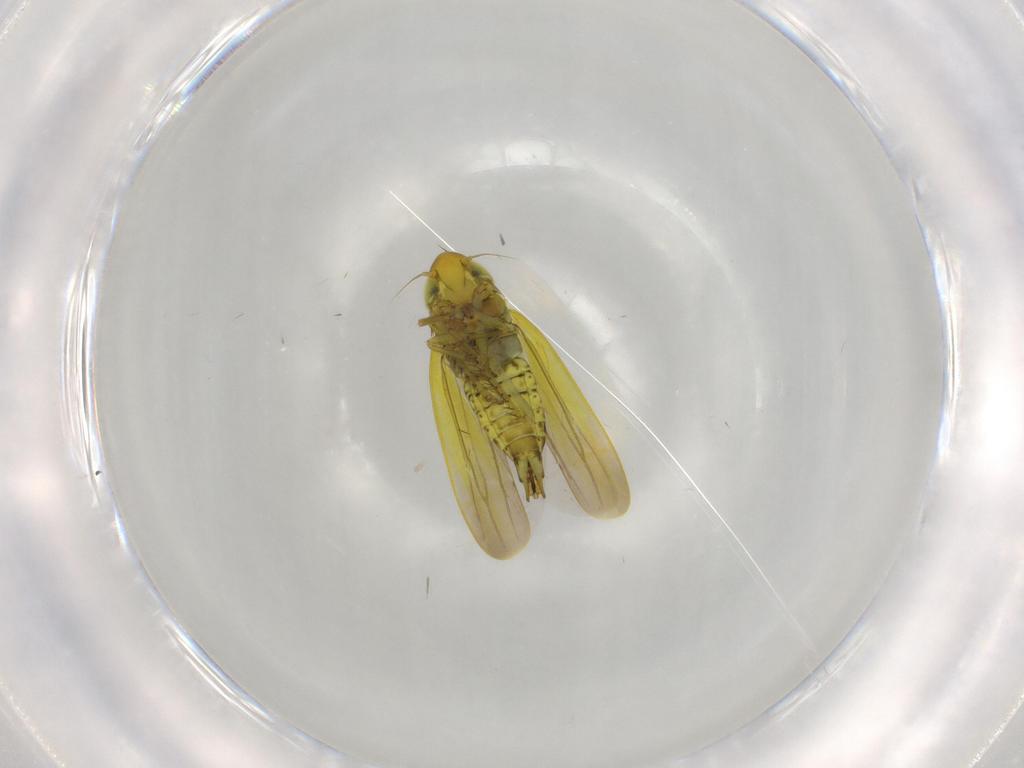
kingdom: Animalia
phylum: Arthropoda
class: Insecta
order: Hemiptera
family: Cicadellidae
